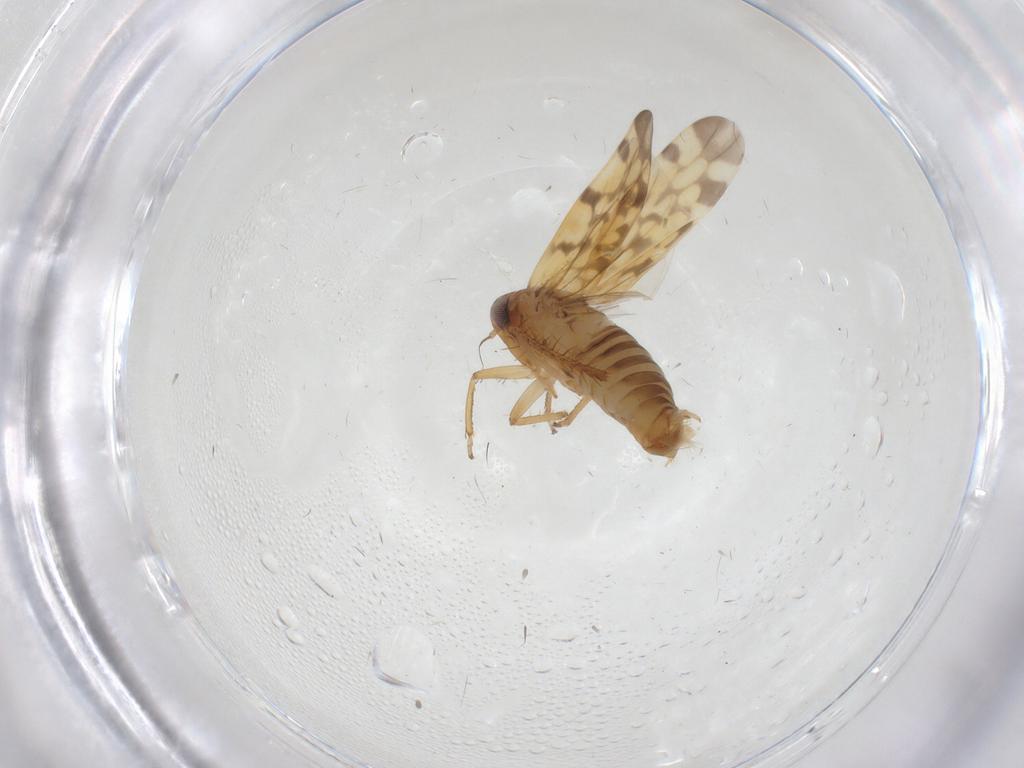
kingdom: Animalia
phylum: Arthropoda
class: Insecta
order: Hemiptera
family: Cicadellidae
